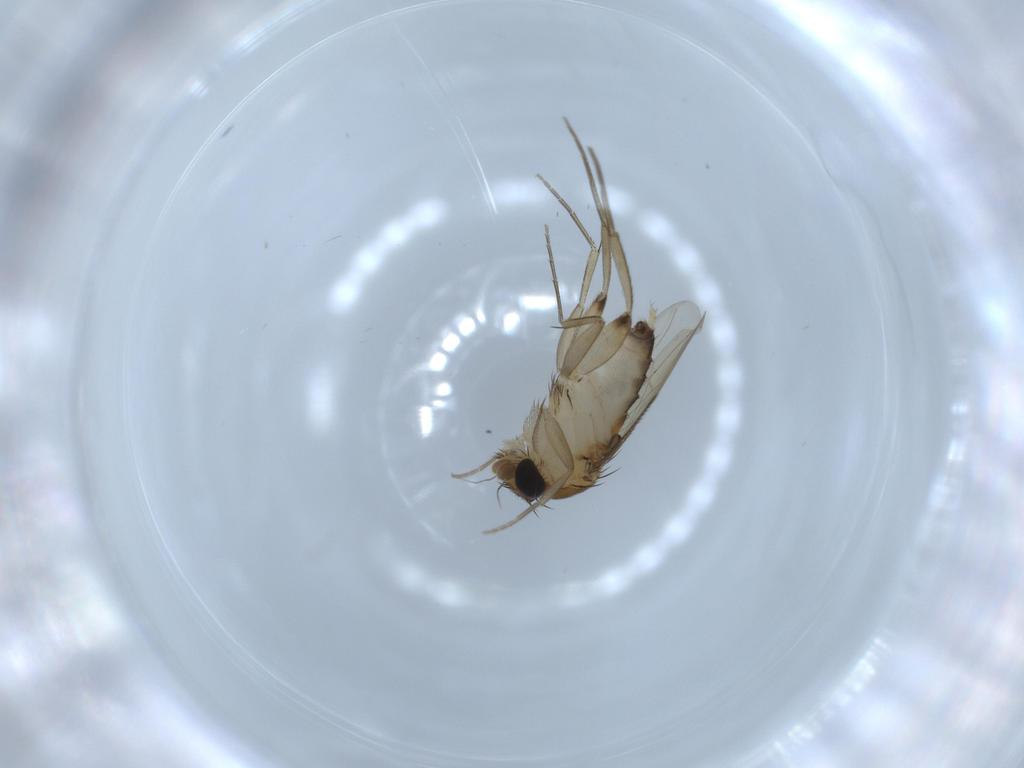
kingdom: Animalia
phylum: Arthropoda
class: Insecta
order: Diptera
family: Phoridae
